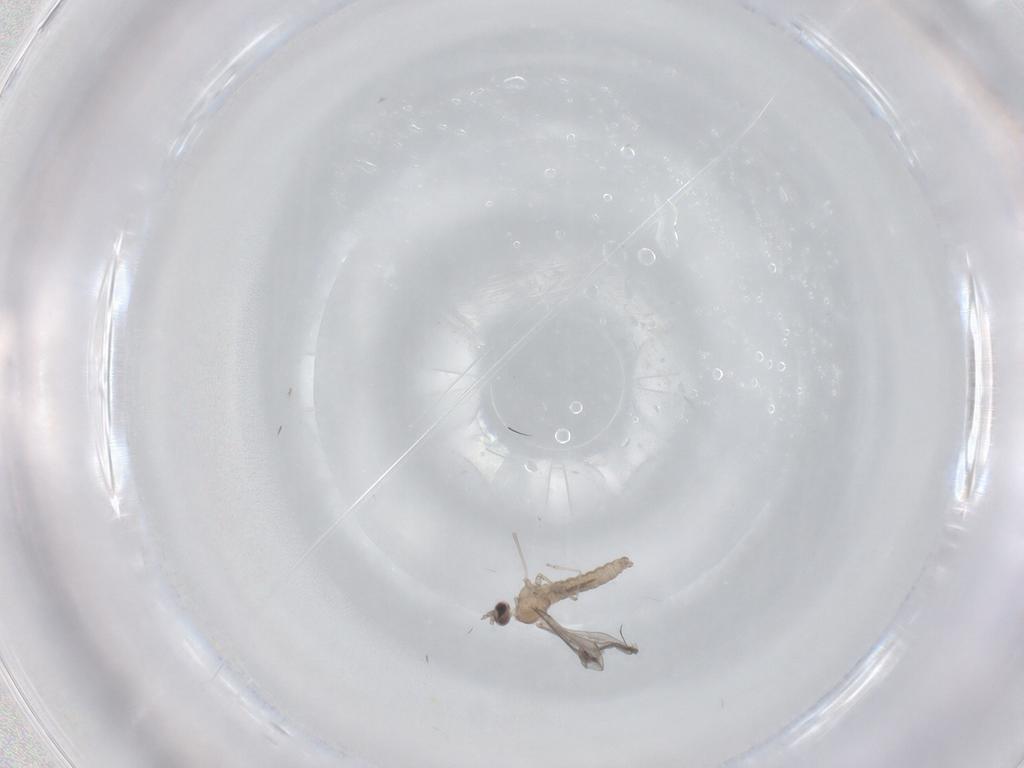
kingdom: Animalia
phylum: Arthropoda
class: Insecta
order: Diptera
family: Cecidomyiidae
